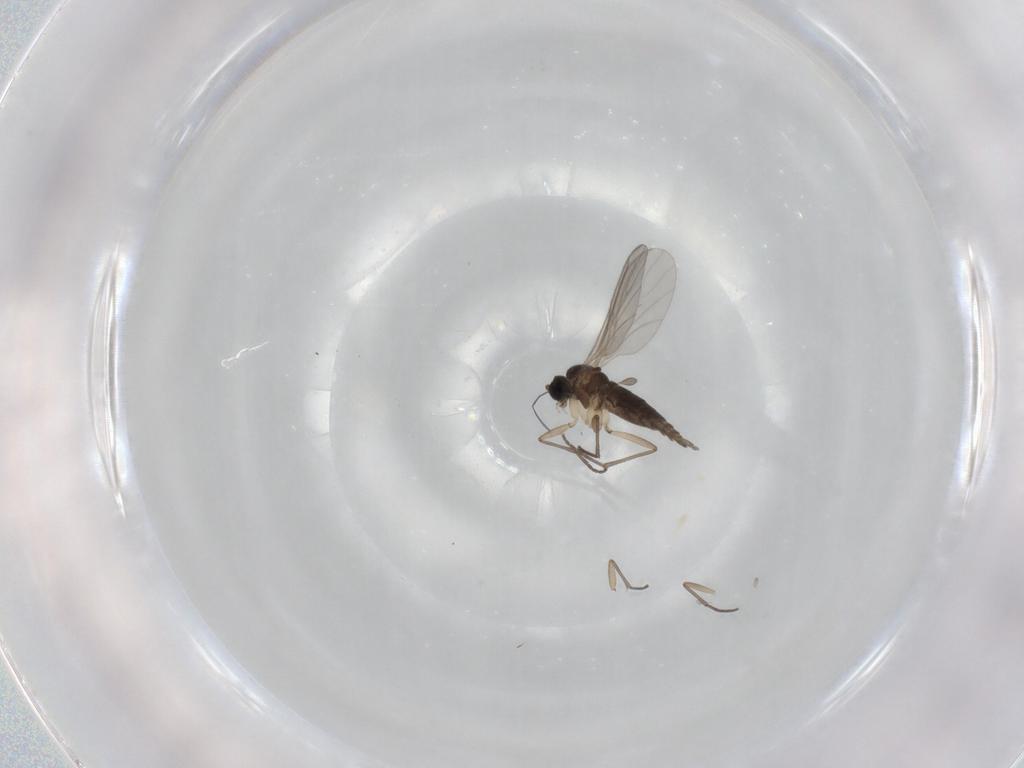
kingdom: Animalia
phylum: Arthropoda
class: Insecta
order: Diptera
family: Sciaridae
